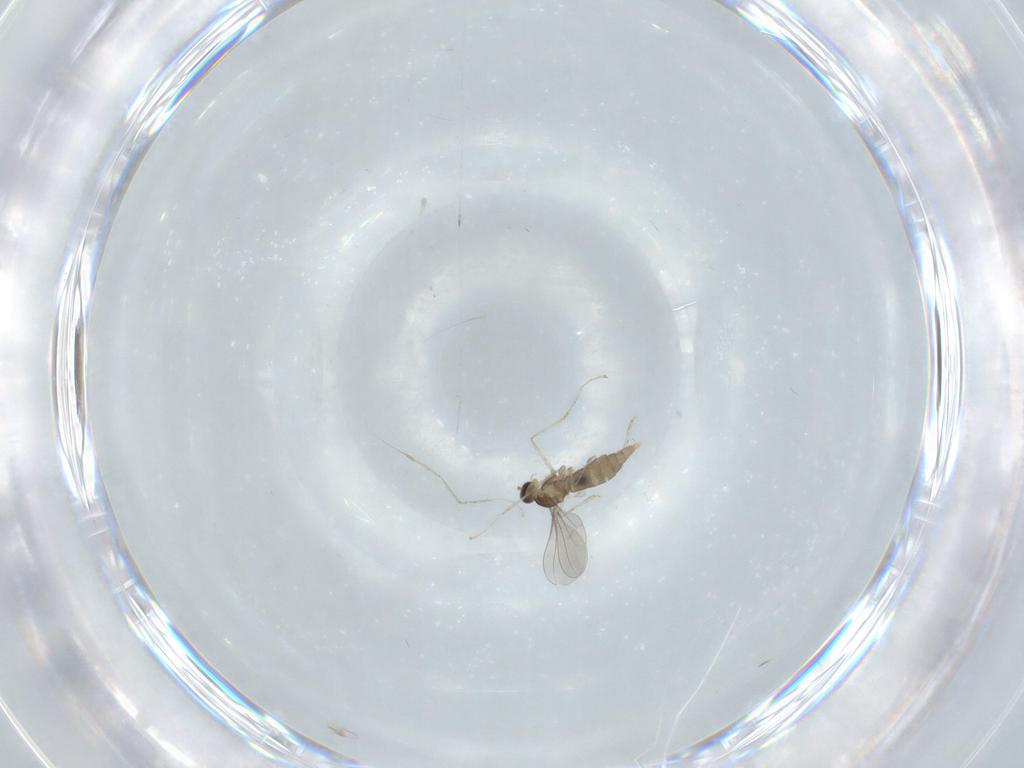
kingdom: Animalia
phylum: Arthropoda
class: Insecta
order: Diptera
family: Cecidomyiidae
